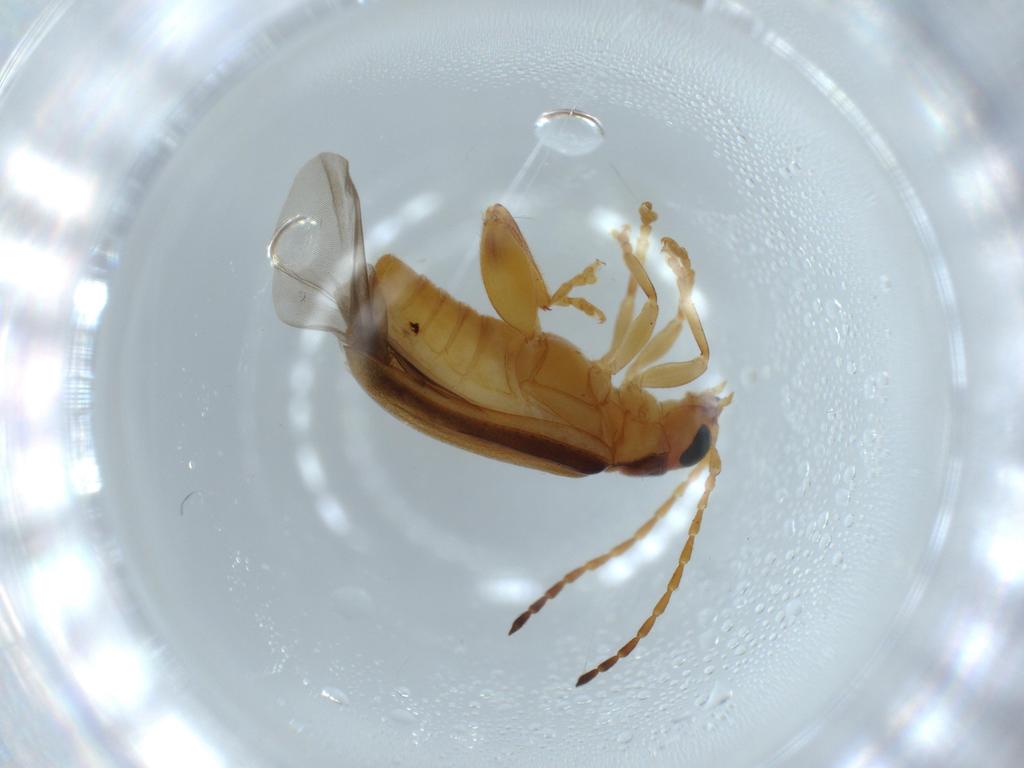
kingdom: Animalia
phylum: Arthropoda
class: Insecta
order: Coleoptera
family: Chrysomelidae
